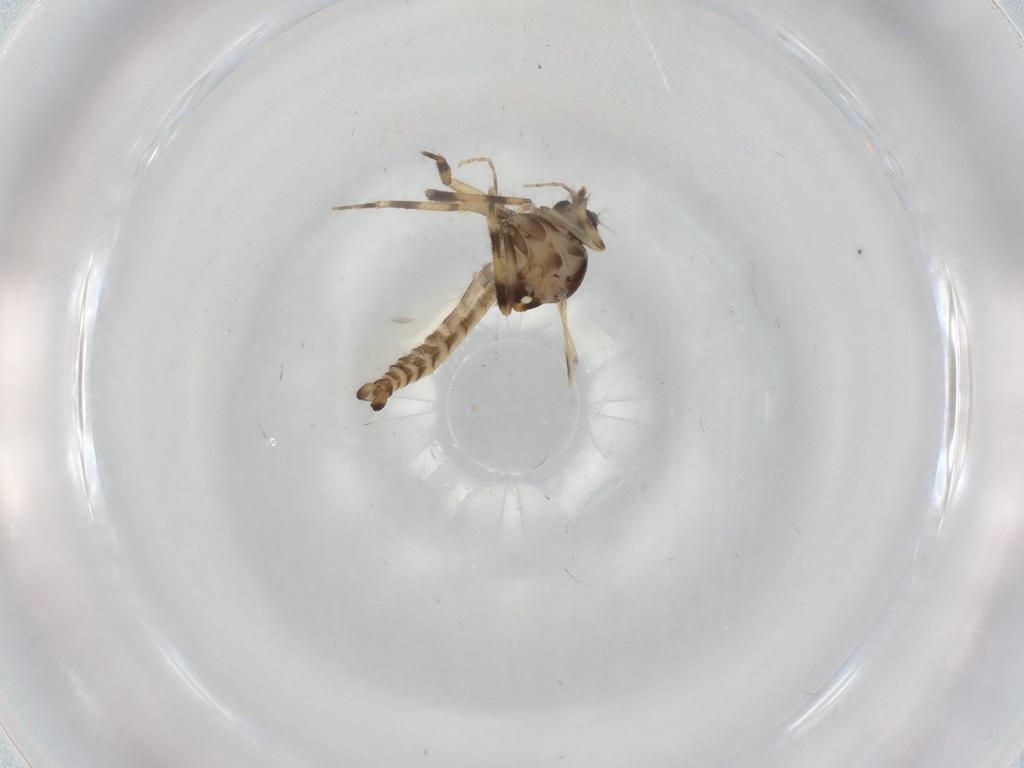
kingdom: Animalia
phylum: Arthropoda
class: Insecta
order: Diptera
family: Ceratopogonidae
